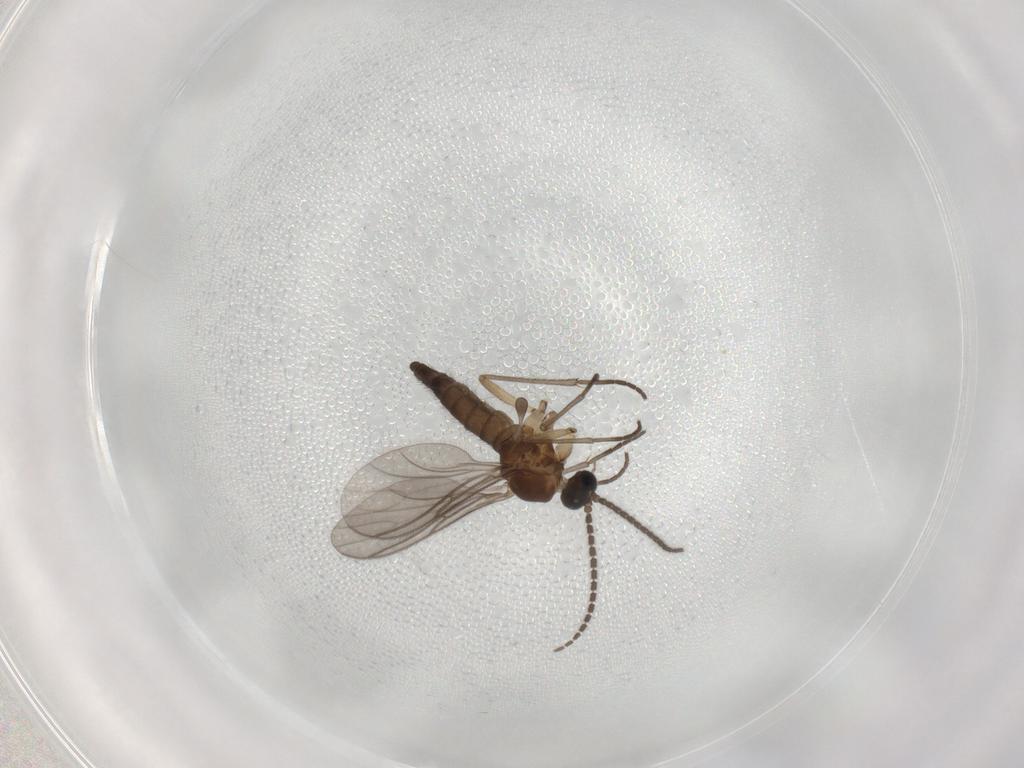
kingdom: Animalia
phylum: Arthropoda
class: Insecta
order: Diptera
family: Sciaridae
